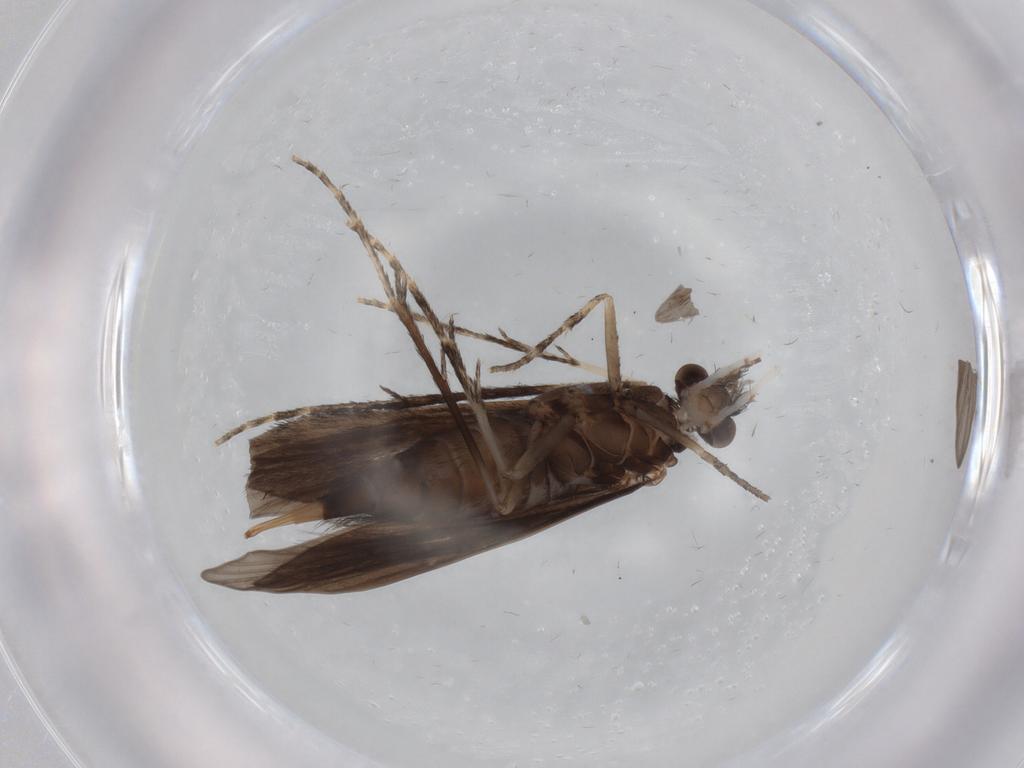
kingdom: Animalia
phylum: Arthropoda
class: Insecta
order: Trichoptera
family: Xiphocentronidae
